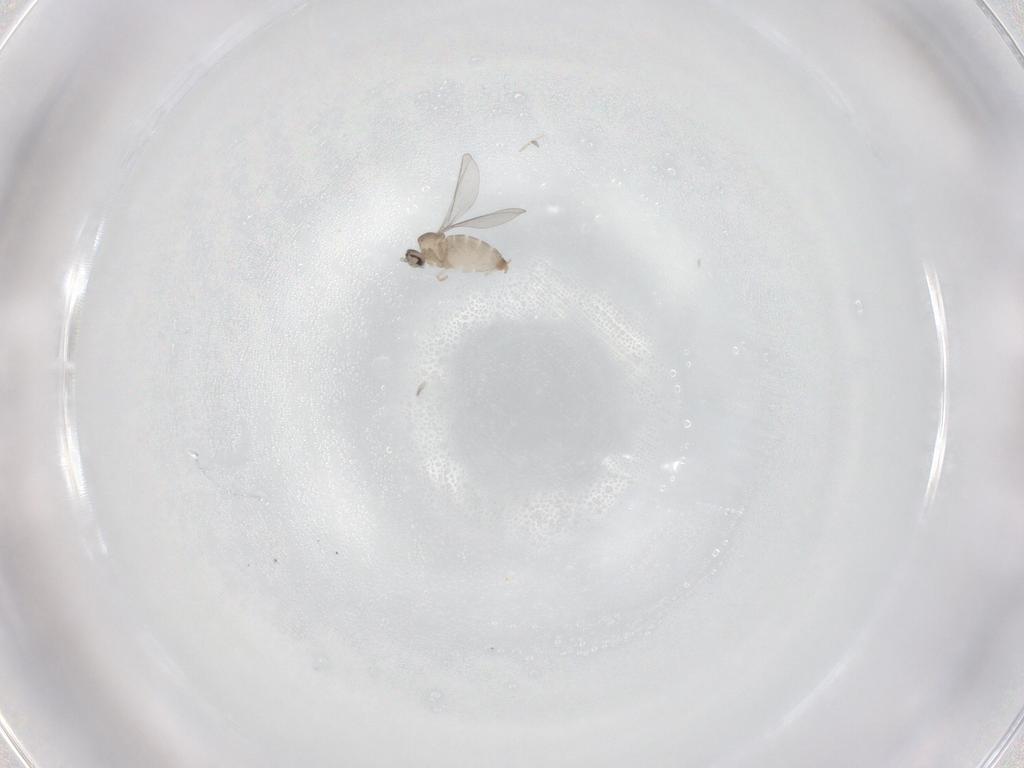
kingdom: Animalia
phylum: Arthropoda
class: Insecta
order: Diptera
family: Cecidomyiidae
